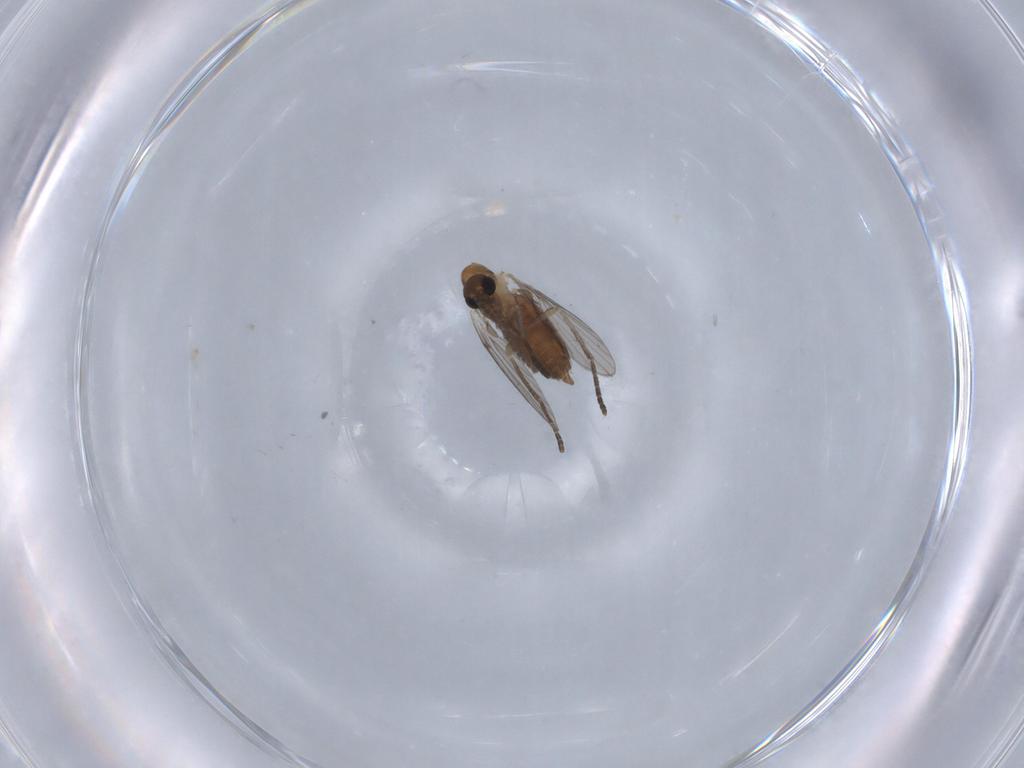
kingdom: Animalia
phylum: Arthropoda
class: Insecta
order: Diptera
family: Psychodidae
